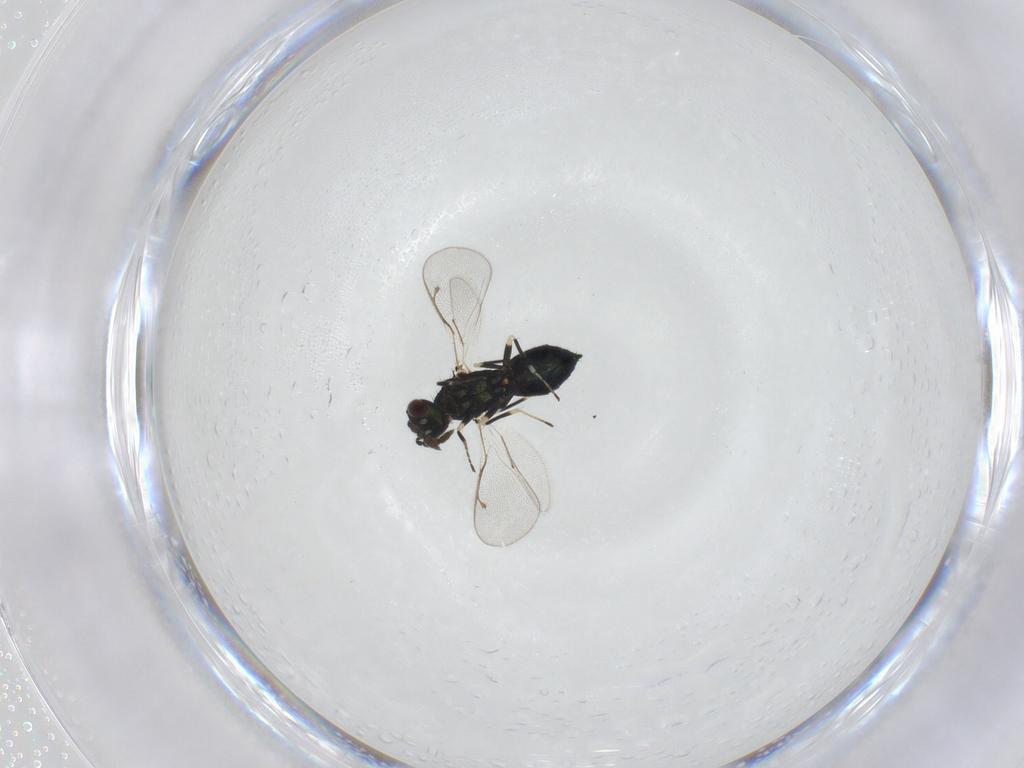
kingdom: Animalia
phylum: Arthropoda
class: Insecta
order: Hymenoptera
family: Eulophidae
